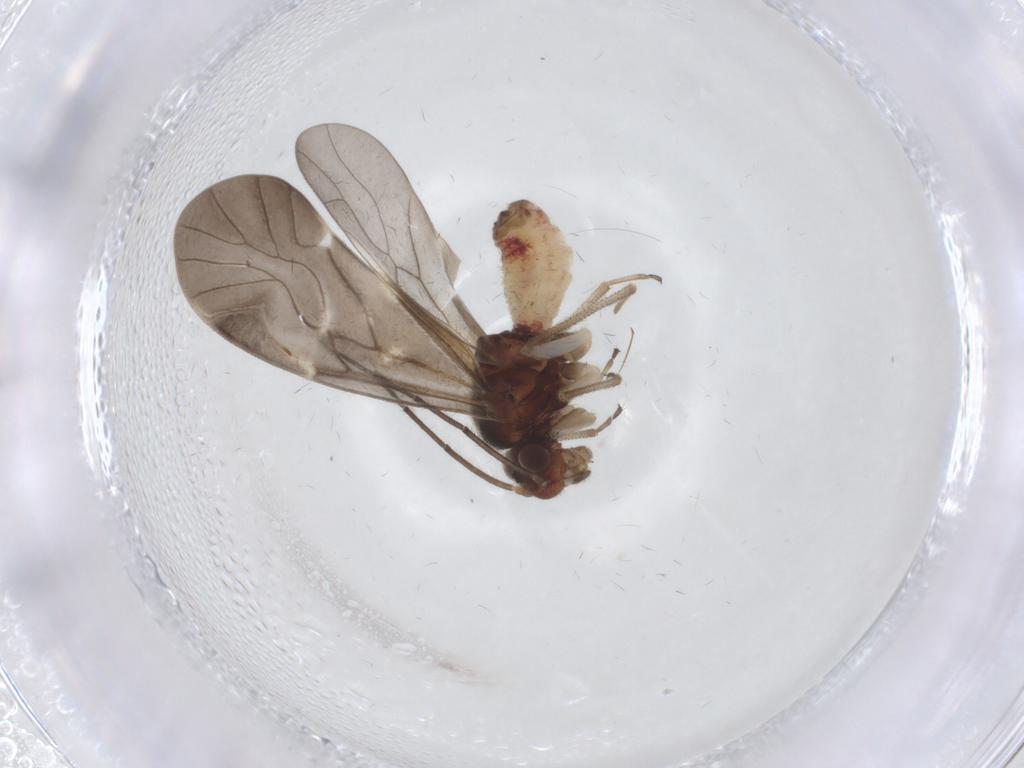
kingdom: Animalia
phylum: Arthropoda
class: Insecta
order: Psocodea
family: Caeciliusidae
